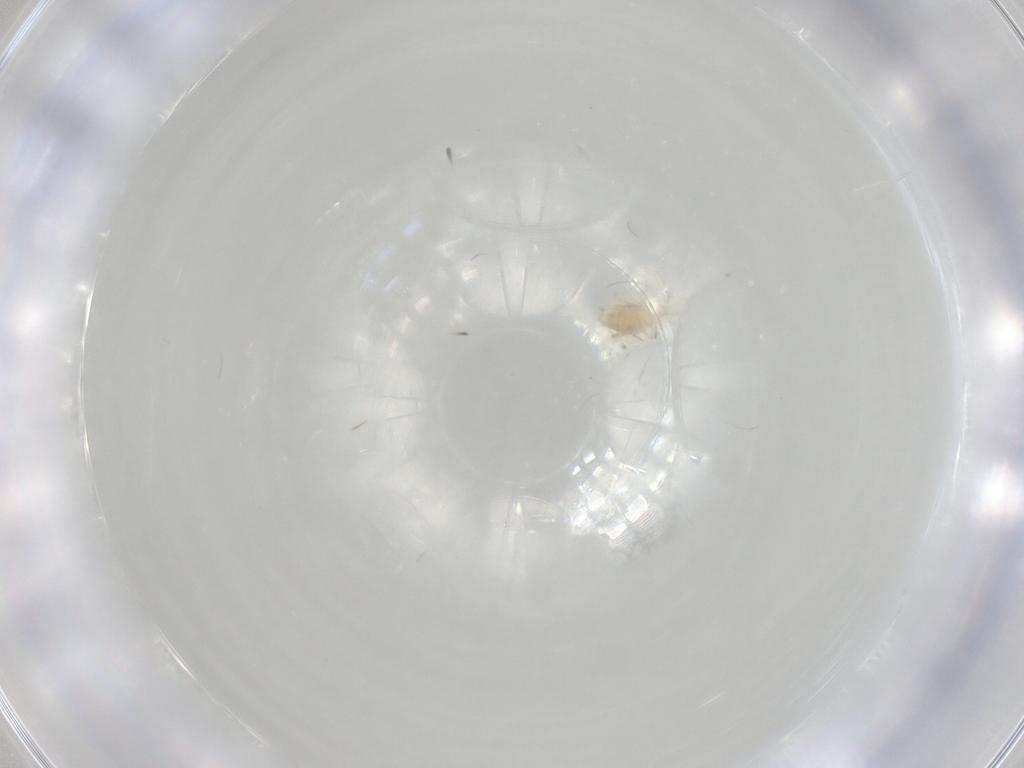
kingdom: Animalia
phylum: Arthropoda
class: Arachnida
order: Trombidiformes
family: Cunaxidae
